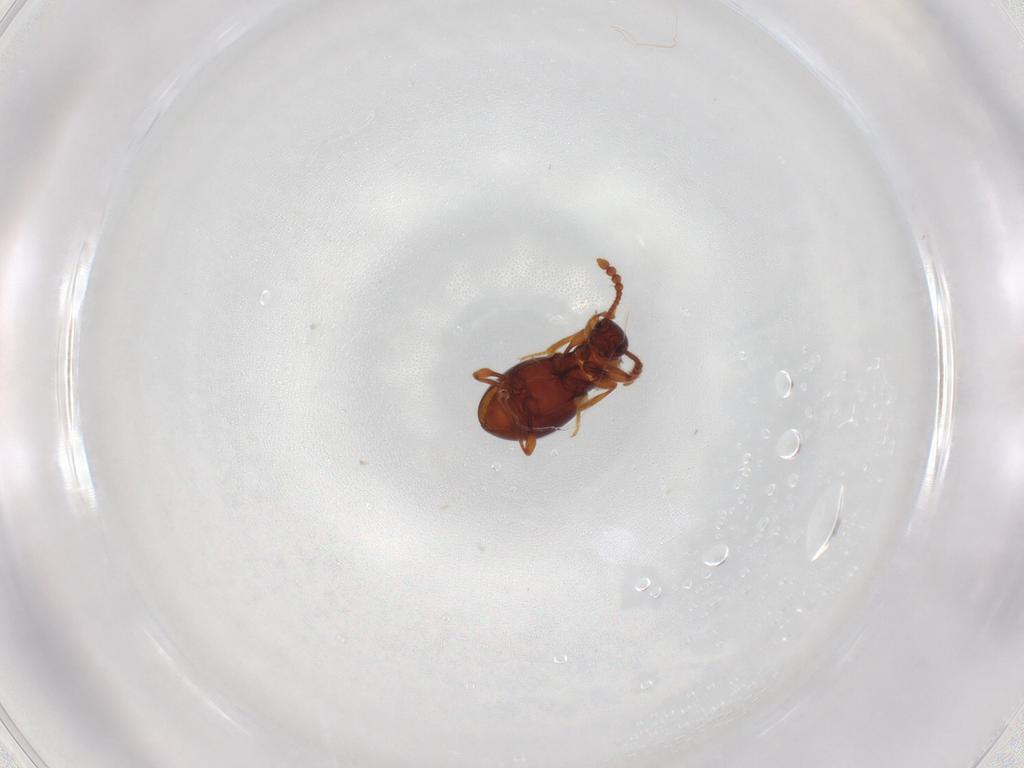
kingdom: Animalia
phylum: Arthropoda
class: Insecta
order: Coleoptera
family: Staphylinidae
